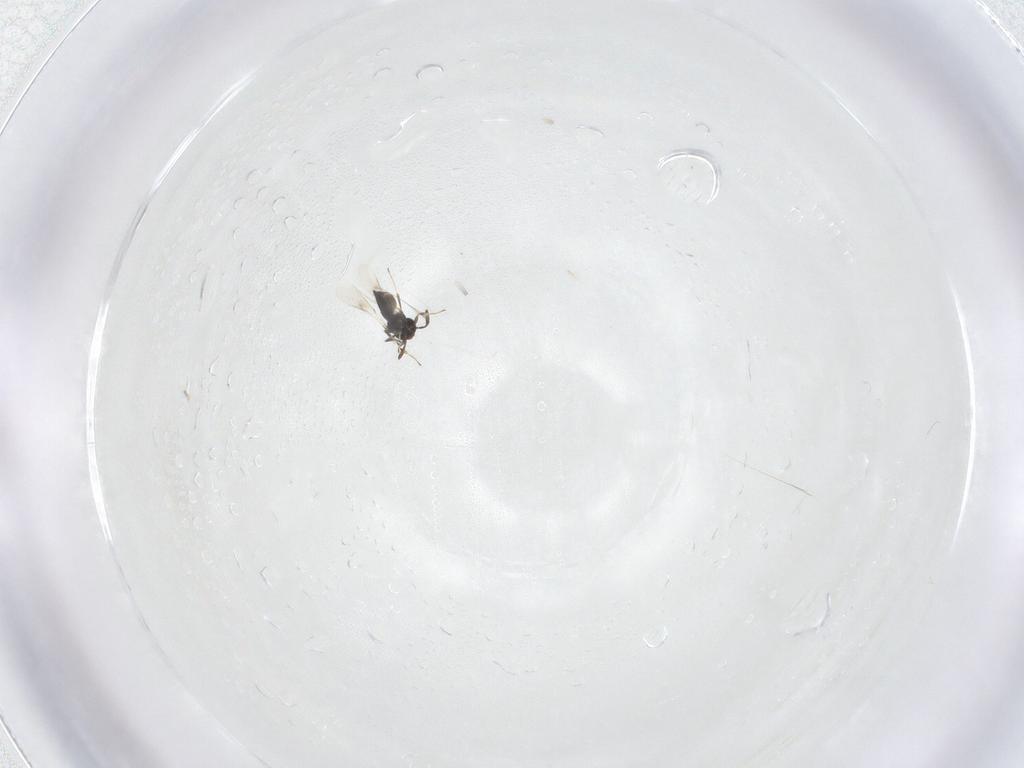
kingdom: Animalia
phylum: Arthropoda
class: Insecta
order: Hymenoptera
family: Scelionidae
